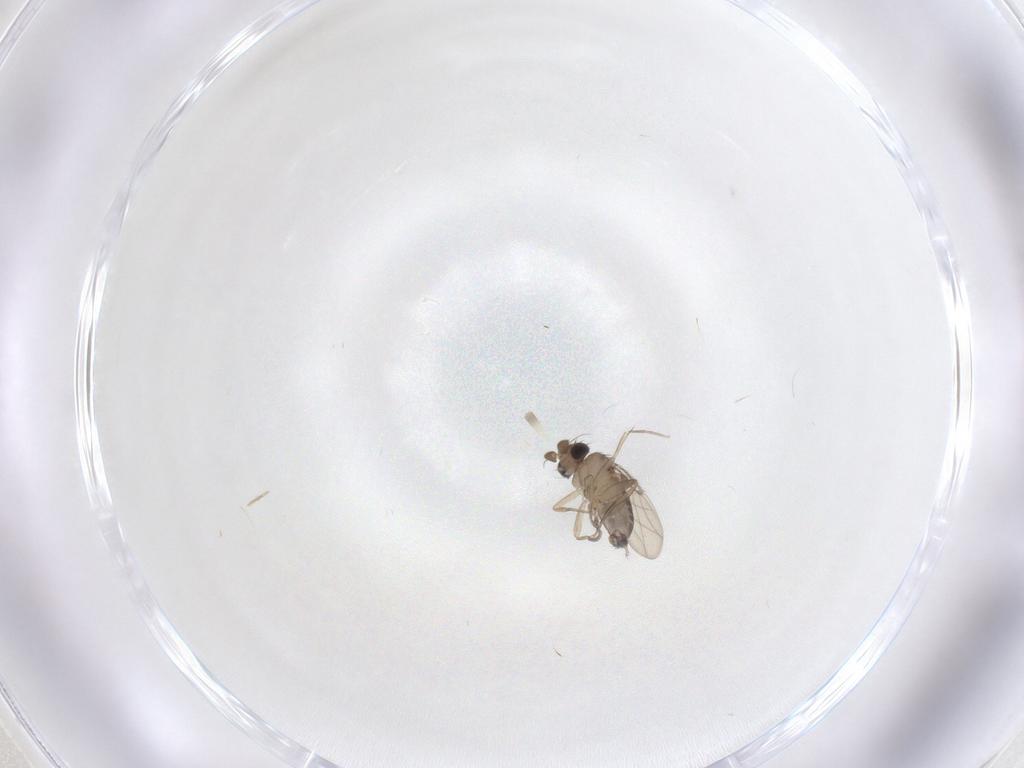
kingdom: Animalia
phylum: Arthropoda
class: Insecta
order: Diptera
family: Phoridae
